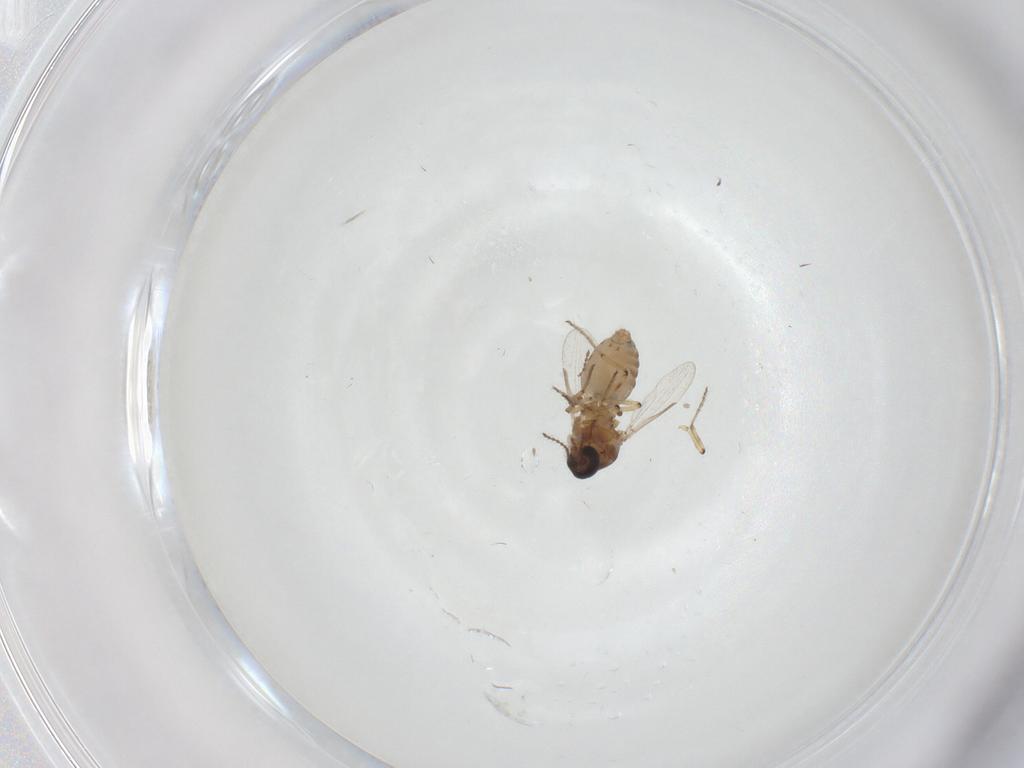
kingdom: Animalia
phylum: Arthropoda
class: Insecta
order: Diptera
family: Ceratopogonidae
